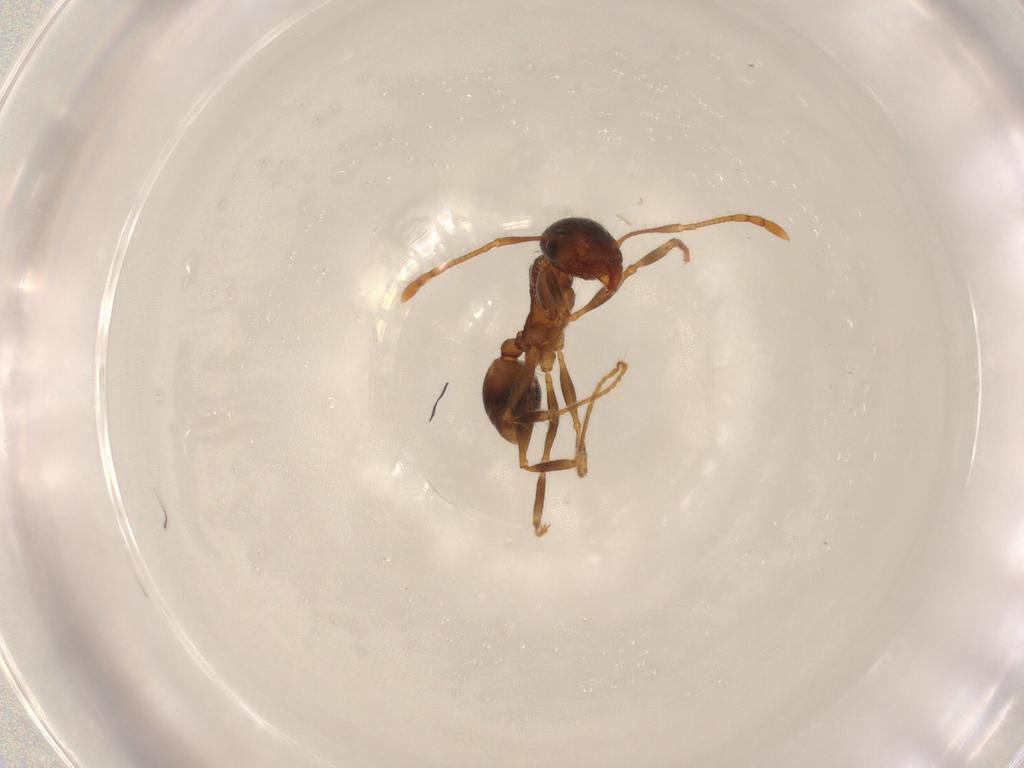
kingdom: Animalia
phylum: Arthropoda
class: Insecta
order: Hymenoptera
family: Formicidae
